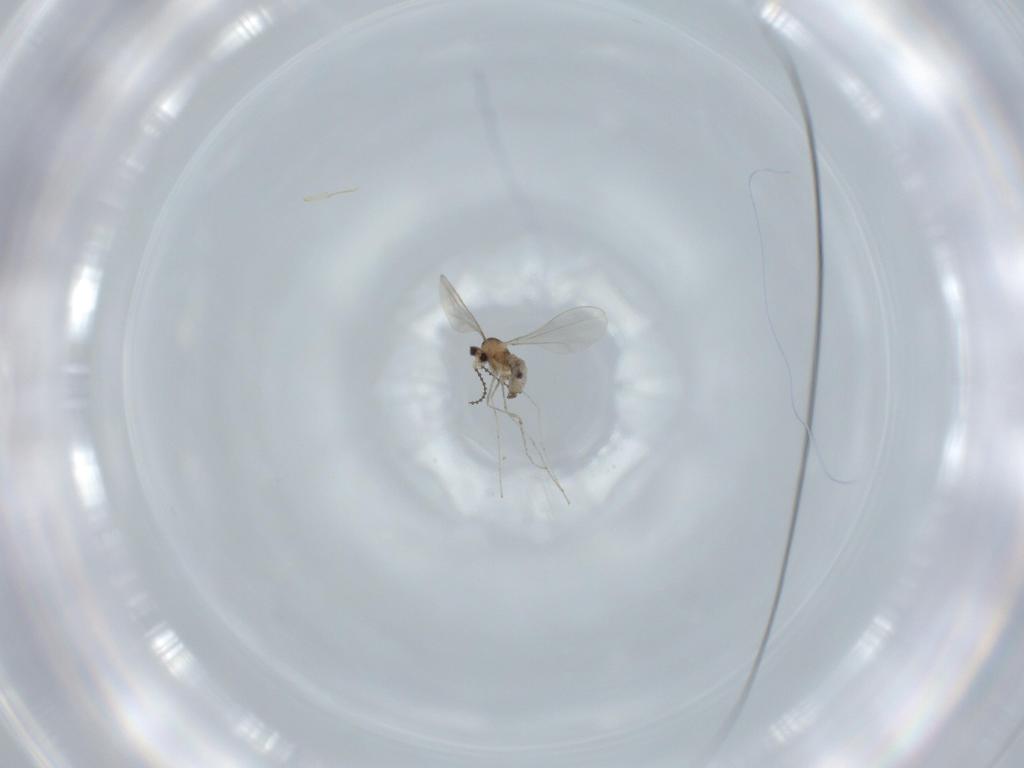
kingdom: Animalia
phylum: Arthropoda
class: Insecta
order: Diptera
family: Cecidomyiidae
